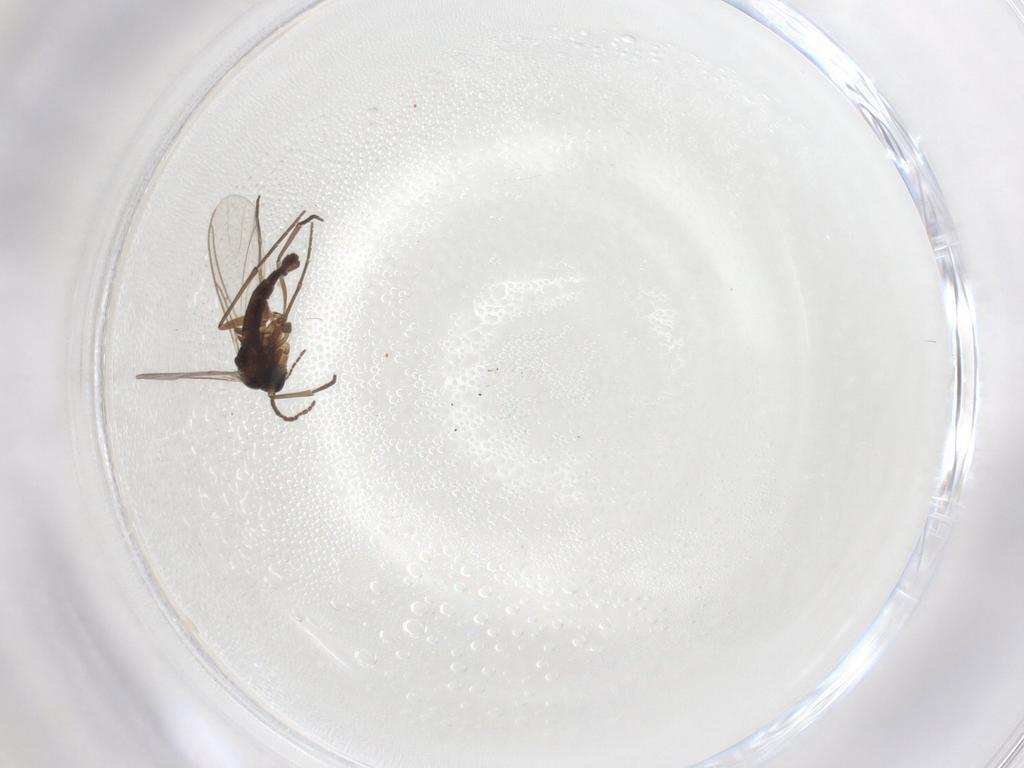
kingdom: Animalia
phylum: Arthropoda
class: Insecta
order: Diptera
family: Sciaridae
